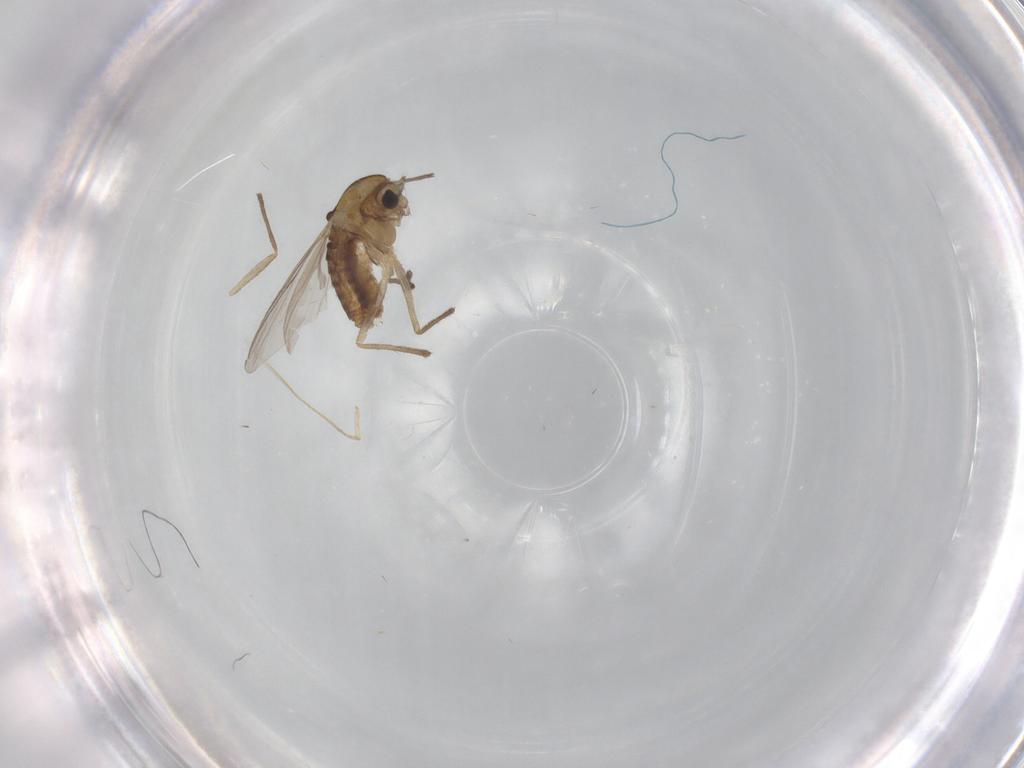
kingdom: Animalia
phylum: Arthropoda
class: Insecta
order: Diptera
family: Chironomidae
